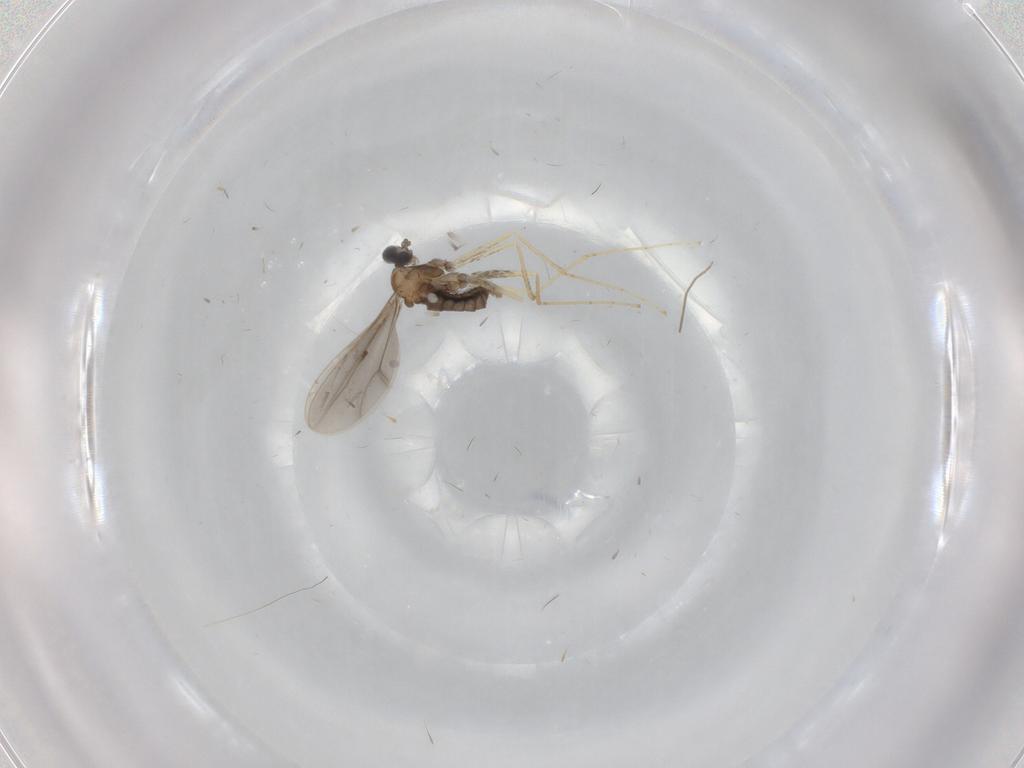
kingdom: Animalia
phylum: Arthropoda
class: Insecta
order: Diptera
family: Cecidomyiidae
